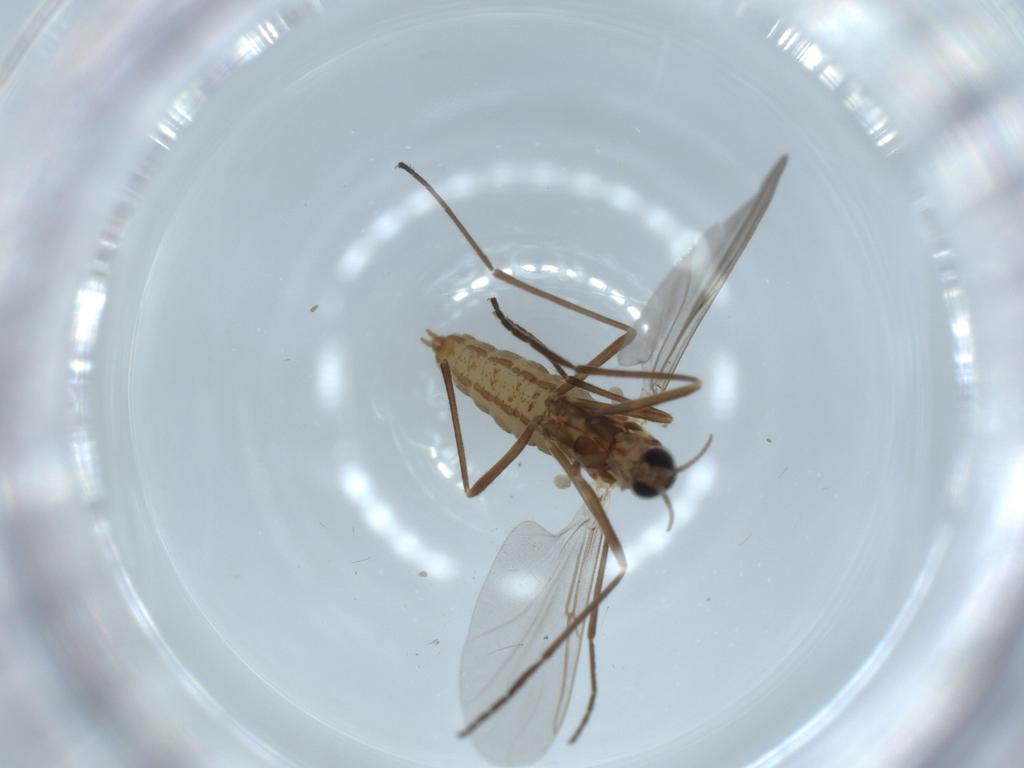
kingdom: Animalia
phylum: Arthropoda
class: Insecta
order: Diptera
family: Cecidomyiidae
